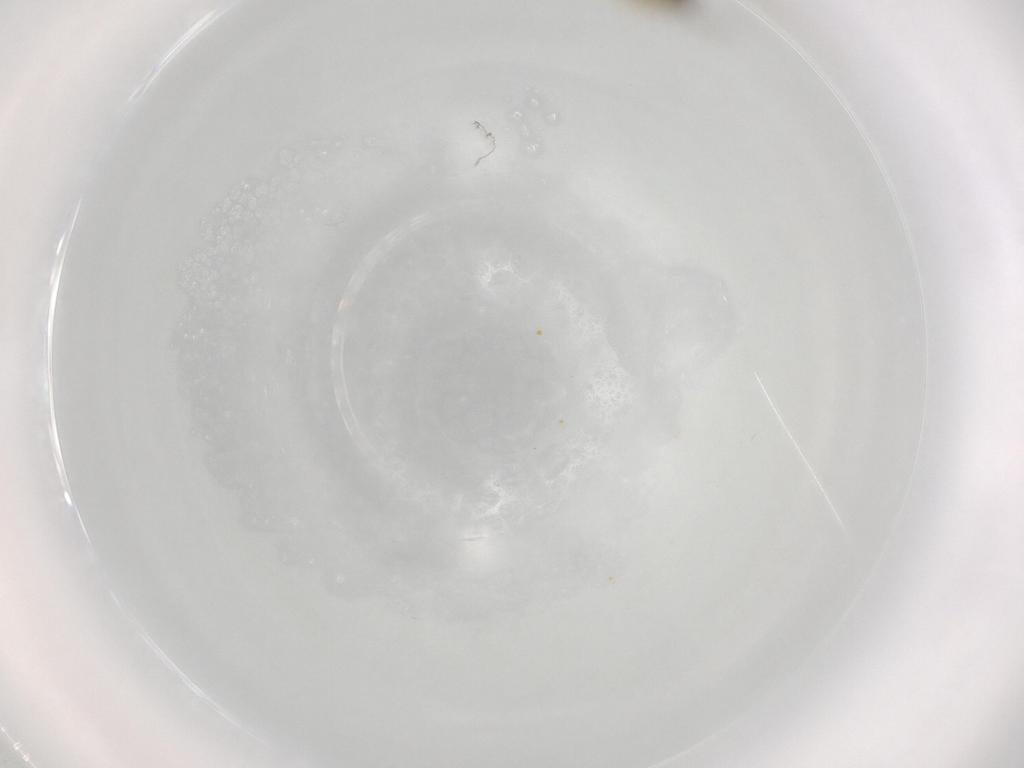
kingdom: Animalia
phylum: Arthropoda
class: Insecta
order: Diptera
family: Cecidomyiidae
